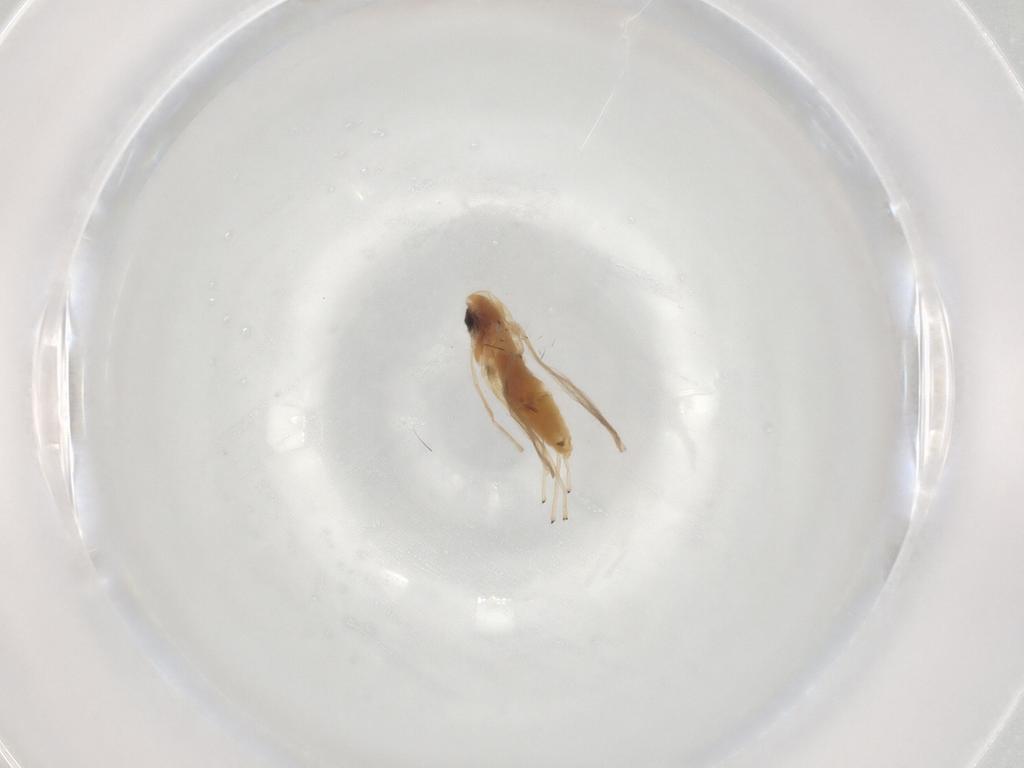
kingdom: Animalia
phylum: Arthropoda
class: Insecta
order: Diptera
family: Chironomidae
